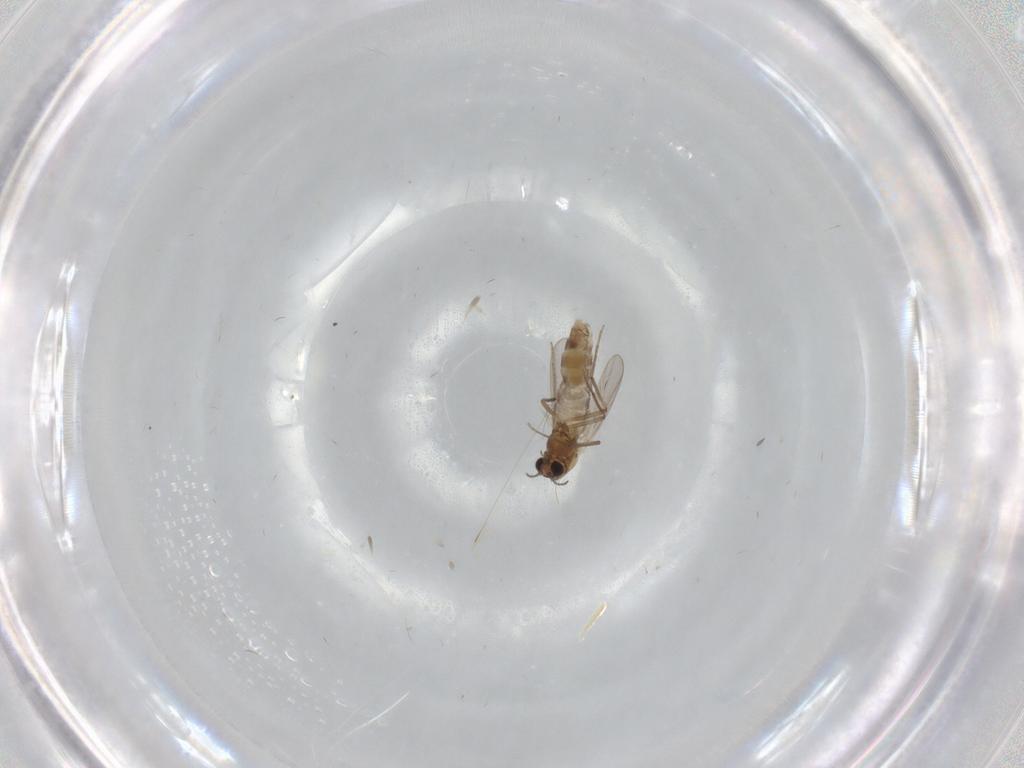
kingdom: Animalia
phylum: Arthropoda
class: Insecta
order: Diptera
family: Chironomidae
